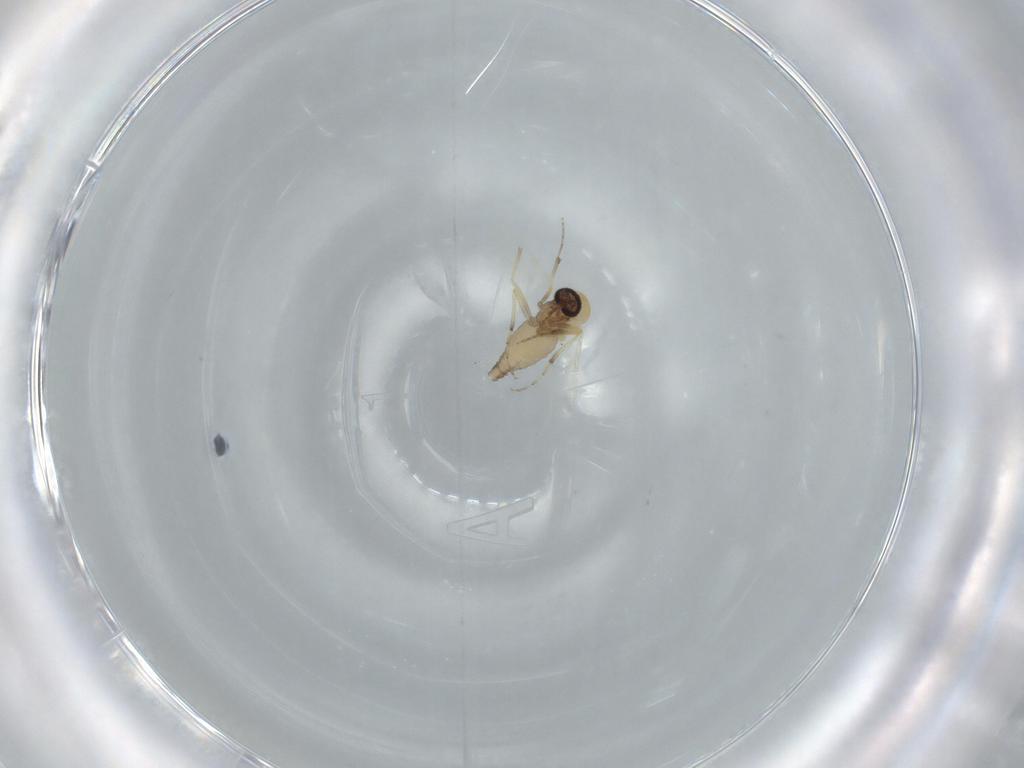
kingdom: Animalia
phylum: Arthropoda
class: Insecta
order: Diptera
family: Ceratopogonidae
